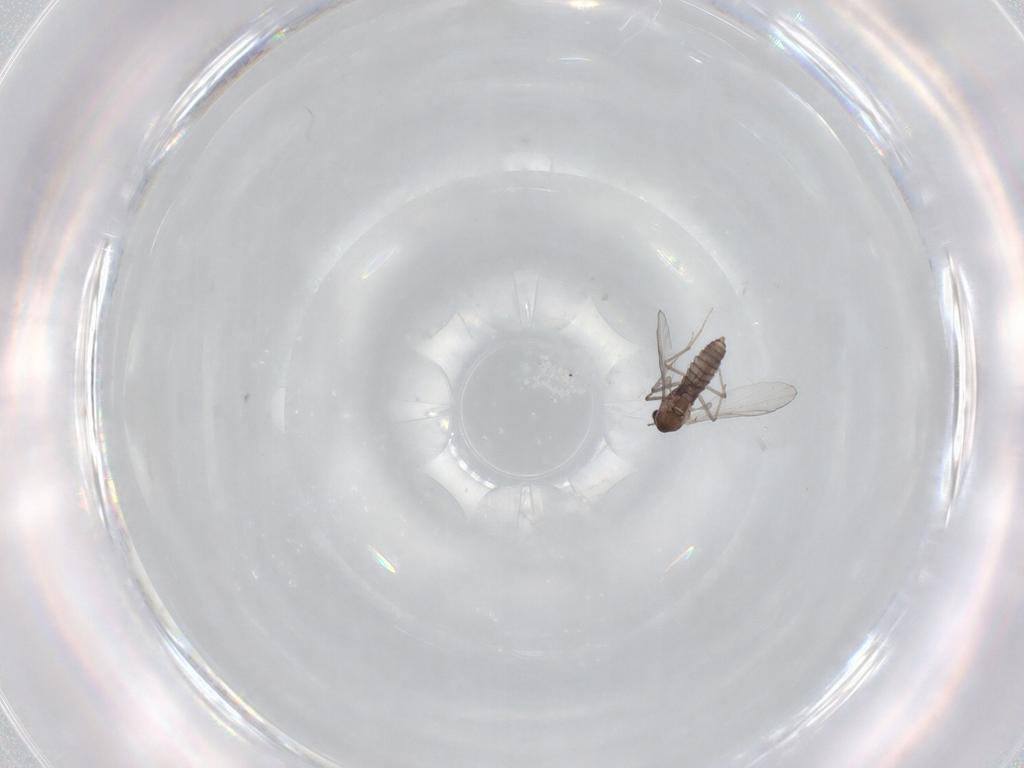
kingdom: Animalia
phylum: Arthropoda
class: Insecta
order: Diptera
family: Chironomidae
